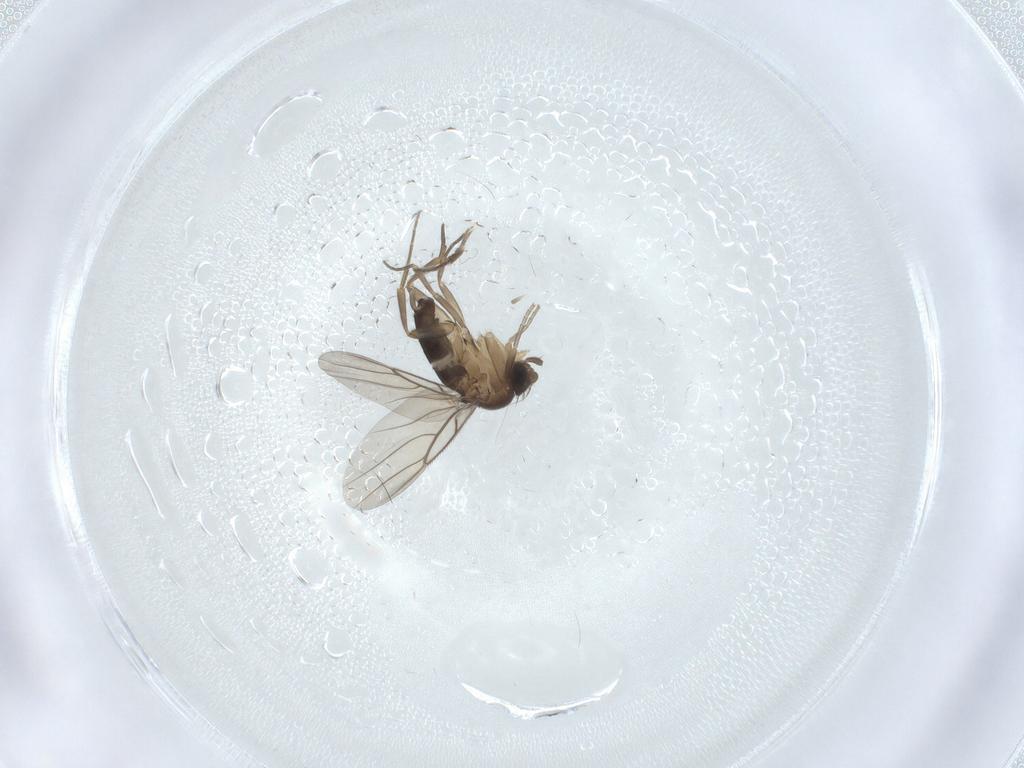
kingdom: Animalia
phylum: Arthropoda
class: Insecta
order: Diptera
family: Phoridae
